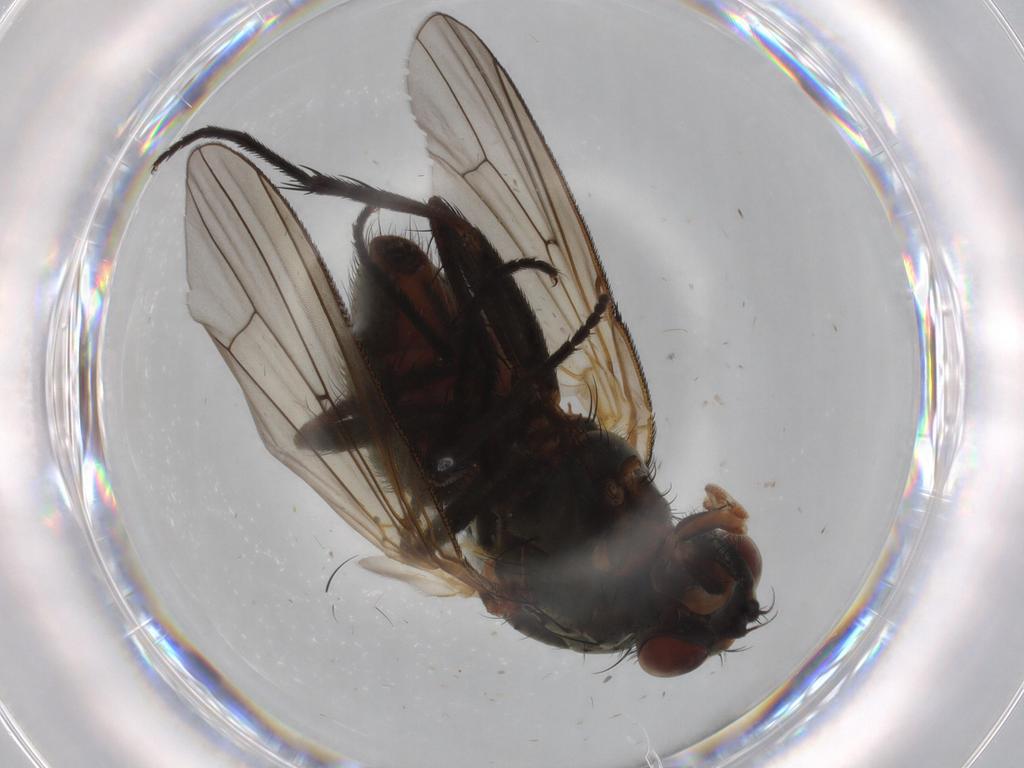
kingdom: Animalia
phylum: Arthropoda
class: Insecta
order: Diptera
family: Anthomyiidae
